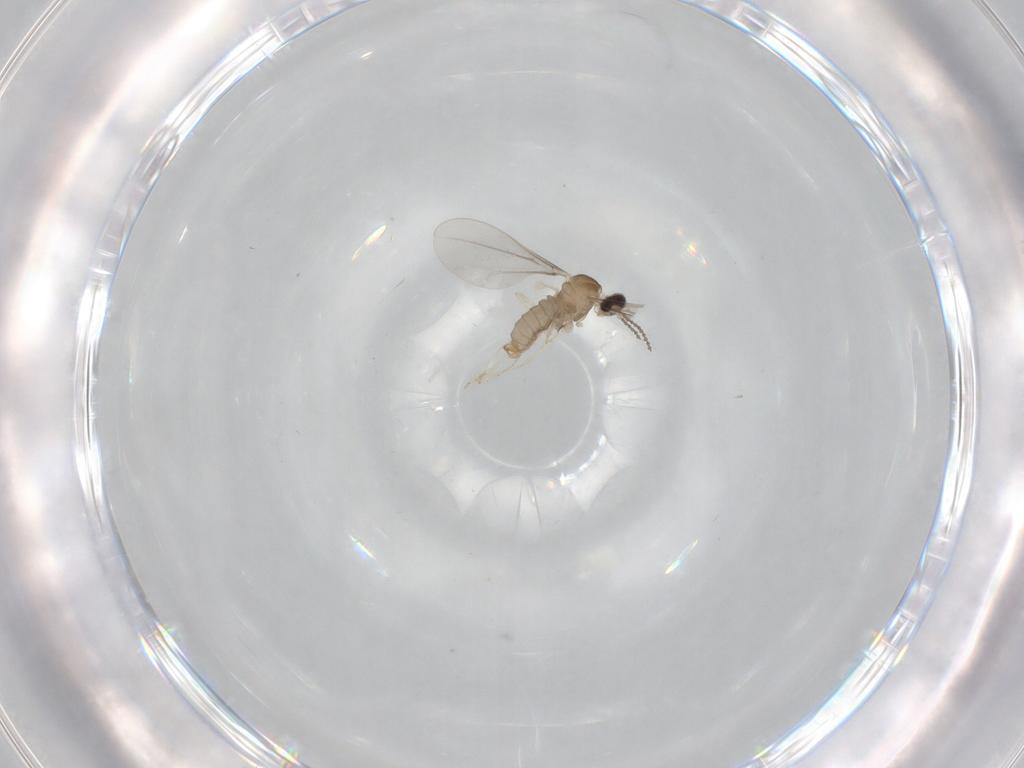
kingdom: Animalia
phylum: Arthropoda
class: Insecta
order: Diptera
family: Cecidomyiidae
